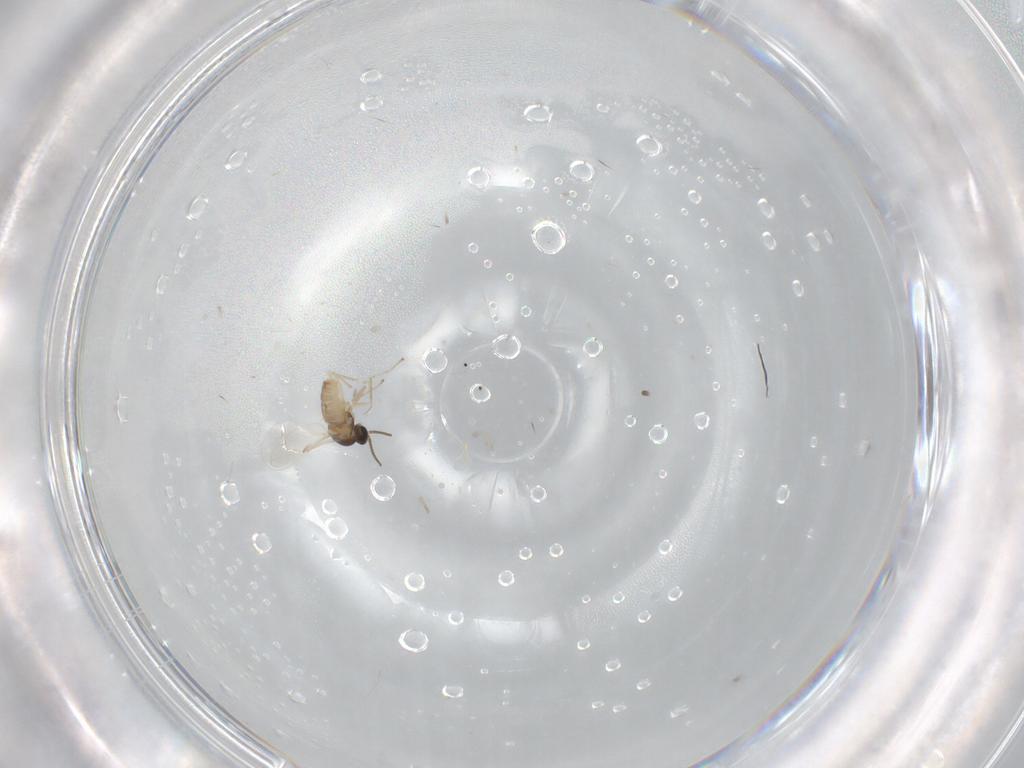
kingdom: Animalia
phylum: Arthropoda
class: Insecta
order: Diptera
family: Cecidomyiidae
